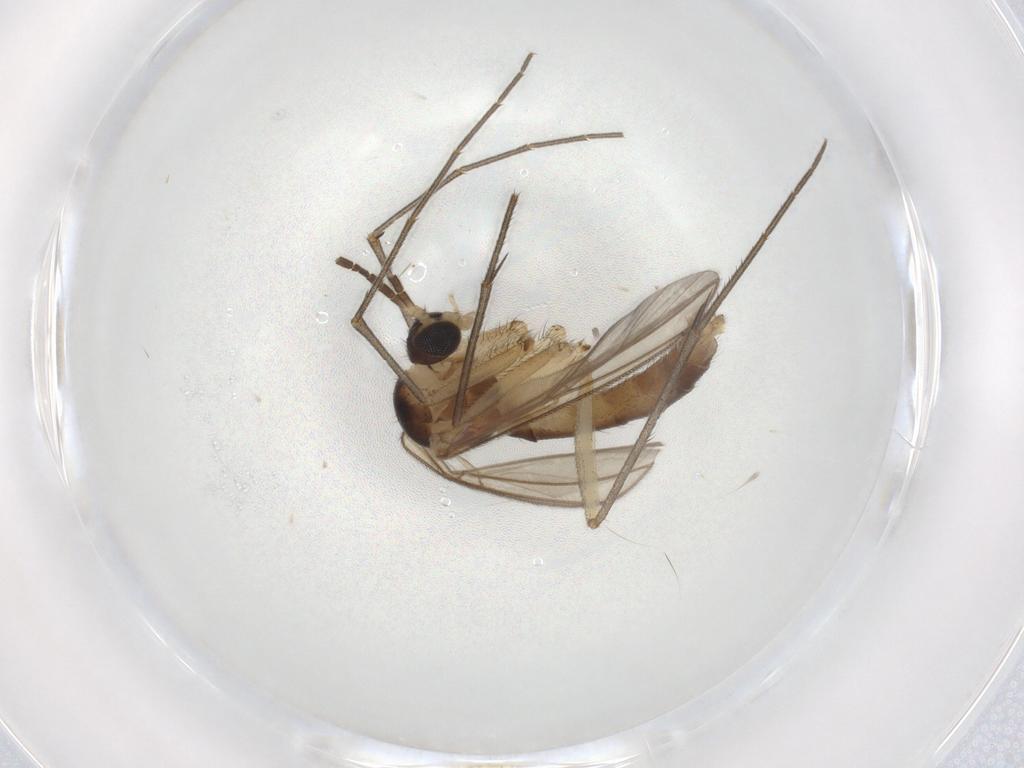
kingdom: Animalia
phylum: Arthropoda
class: Insecta
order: Diptera
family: Mycetophilidae
